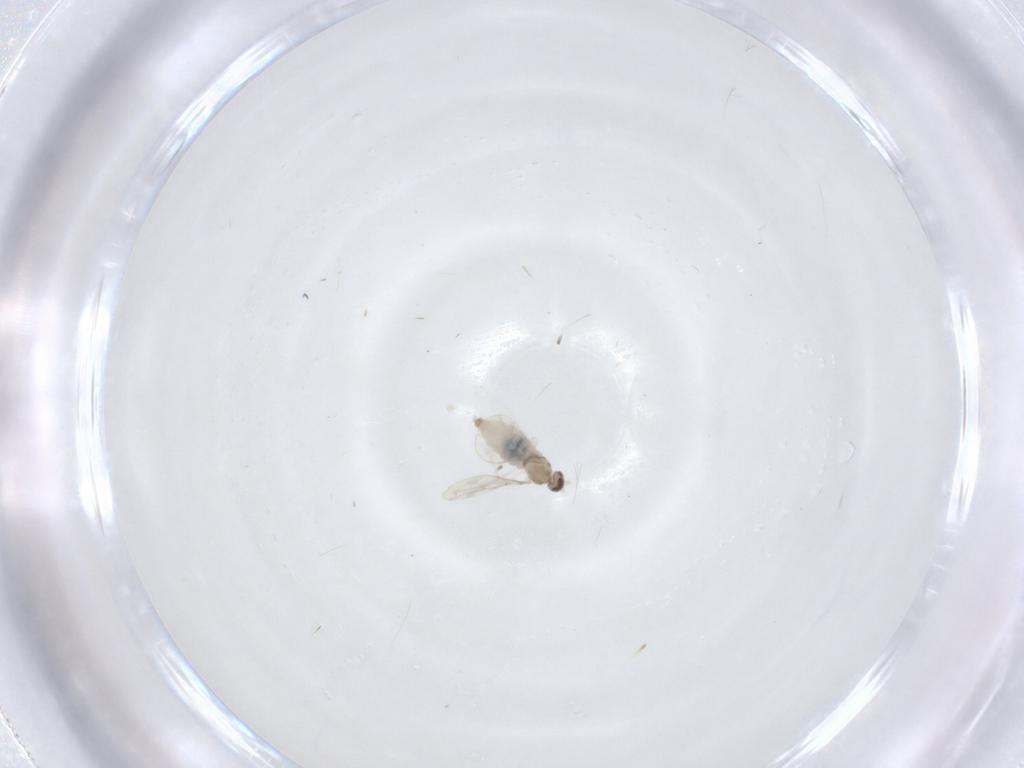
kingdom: Animalia
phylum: Arthropoda
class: Insecta
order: Diptera
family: Cecidomyiidae
